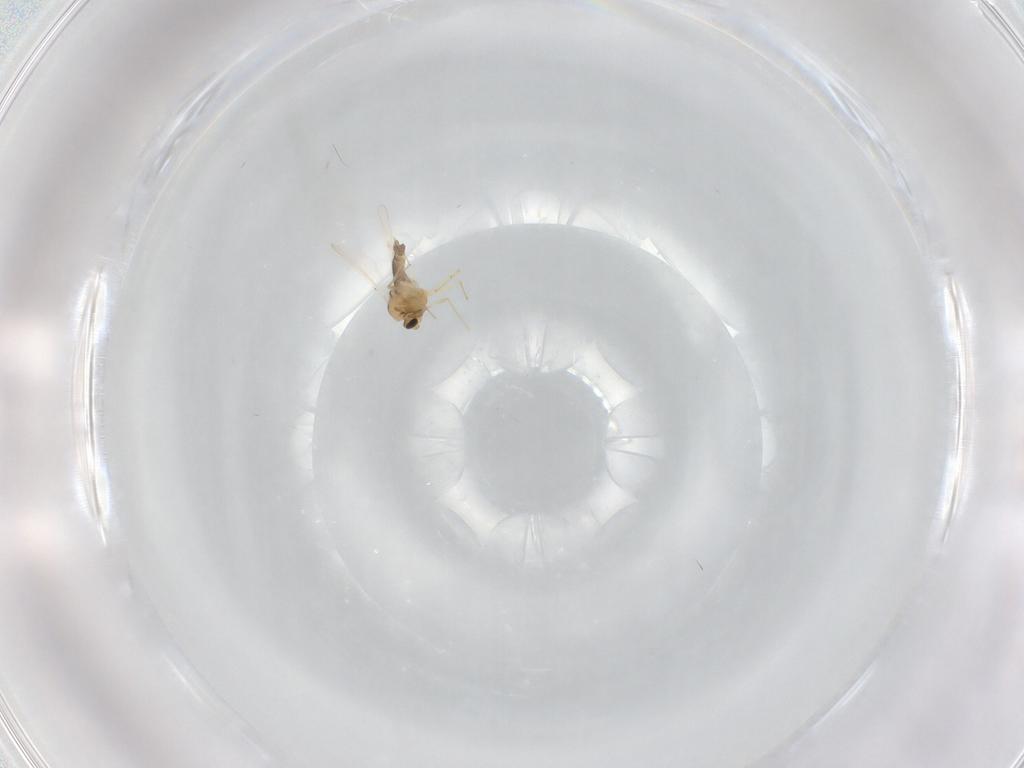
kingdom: Animalia
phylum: Arthropoda
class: Insecta
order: Diptera
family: Chironomidae
